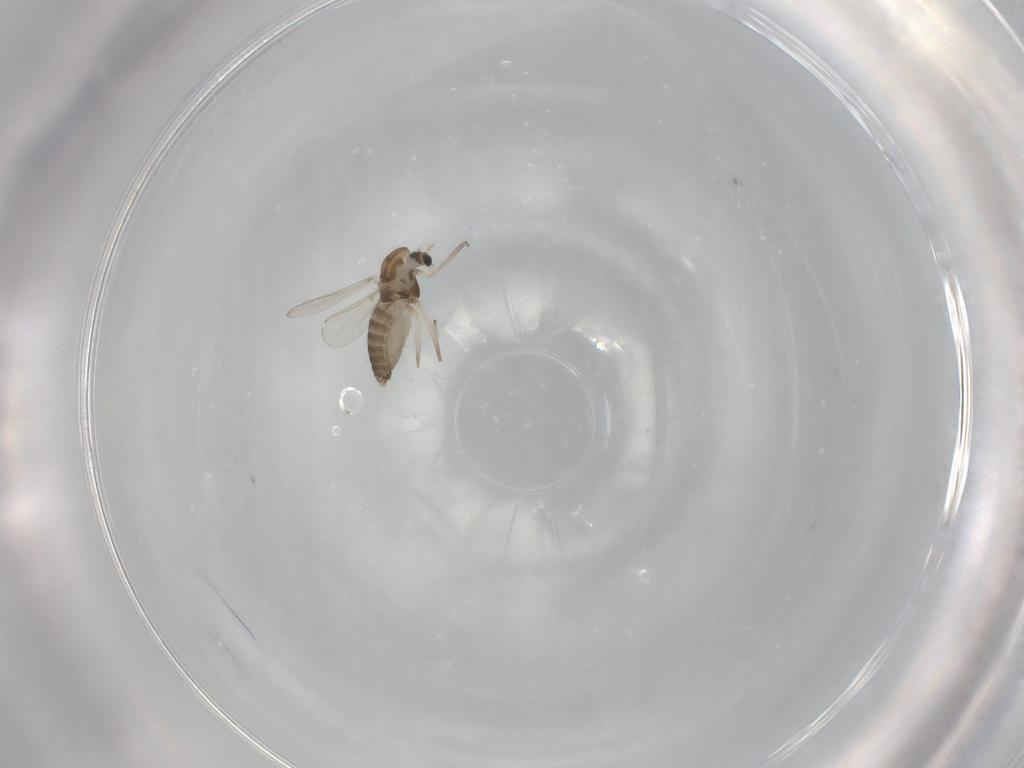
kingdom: Animalia
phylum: Arthropoda
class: Insecta
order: Diptera
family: Chironomidae
